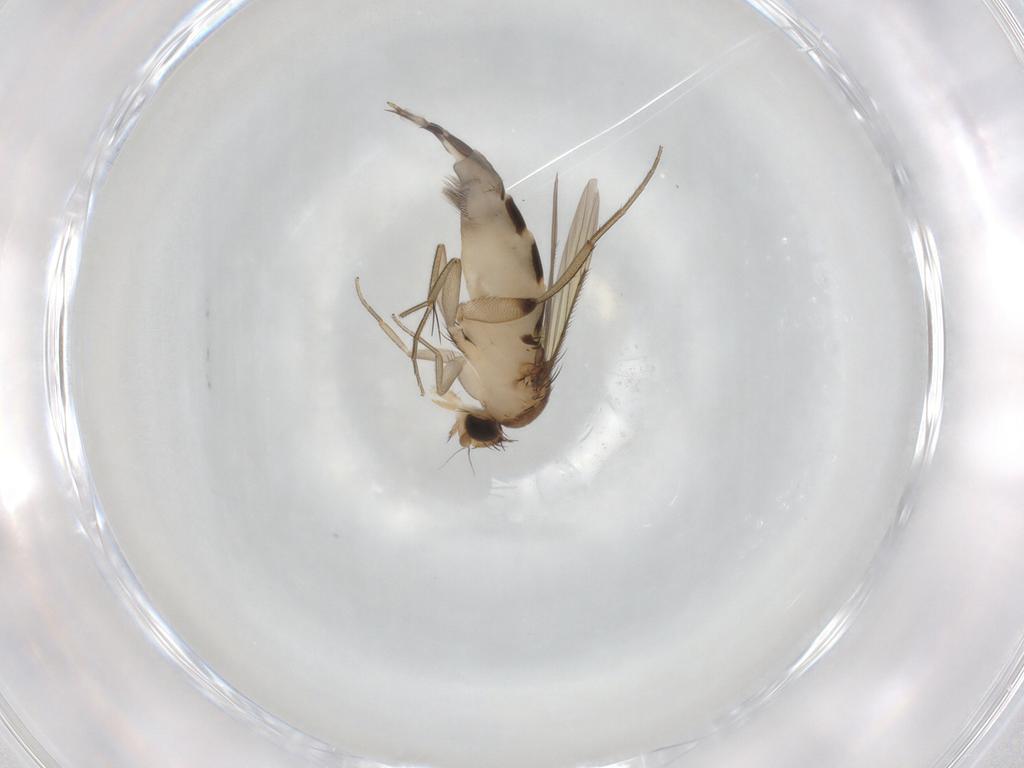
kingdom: Animalia
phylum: Arthropoda
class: Insecta
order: Diptera
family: Phoridae
